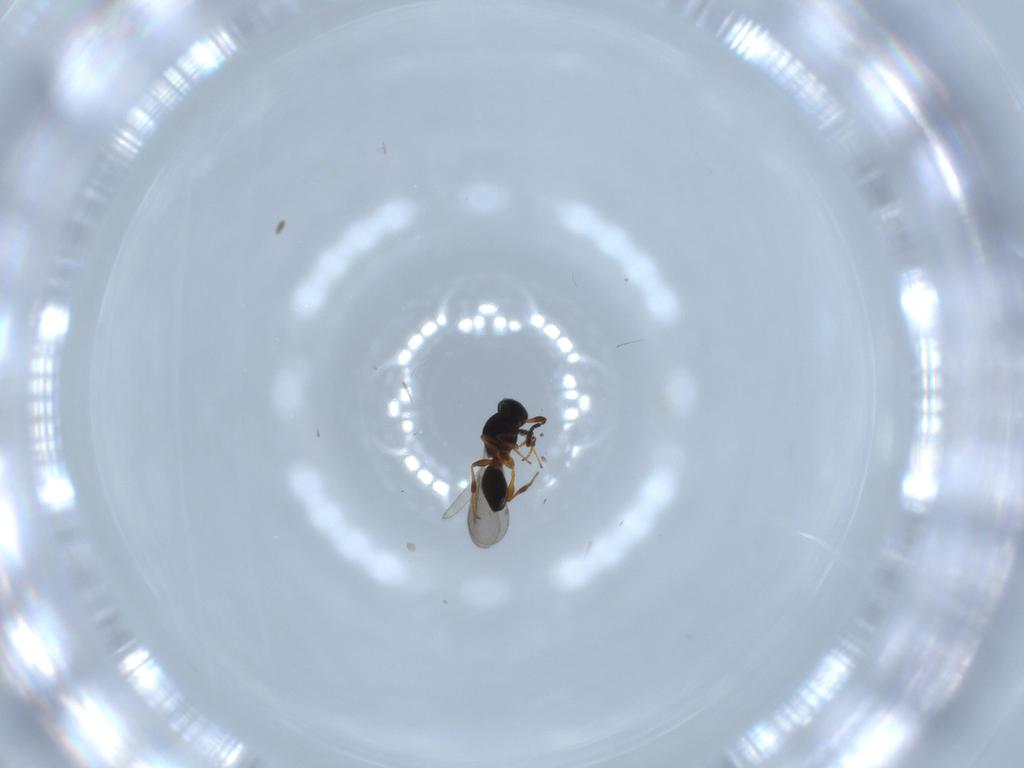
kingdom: Animalia
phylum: Arthropoda
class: Insecta
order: Hymenoptera
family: Platygastridae
